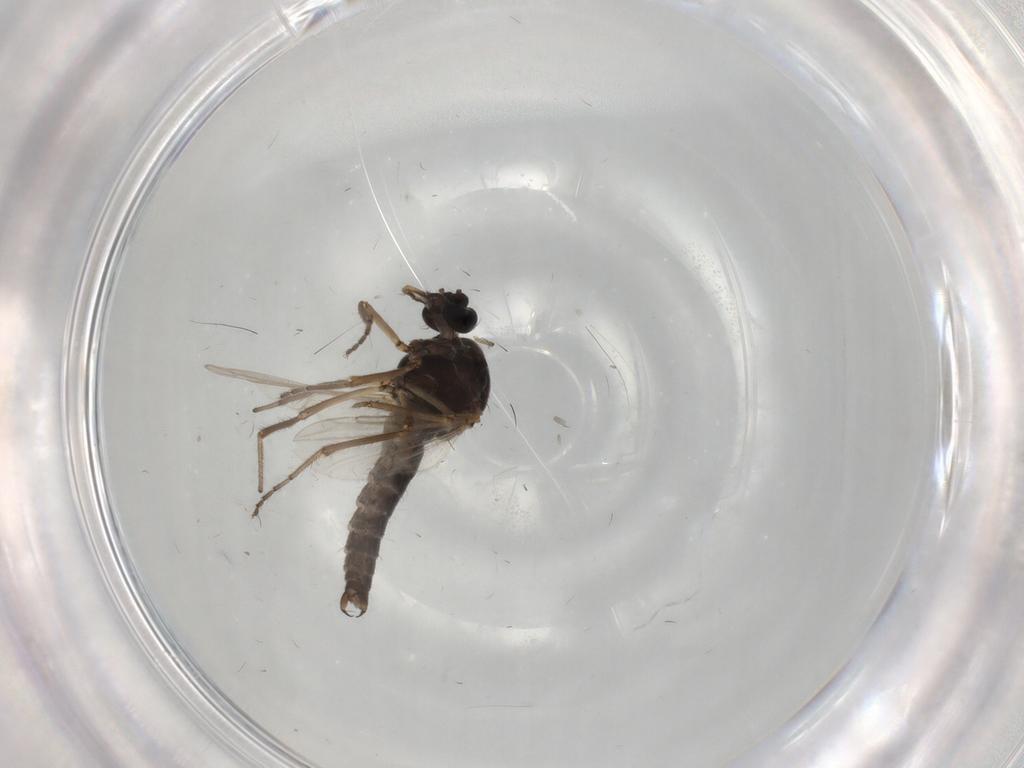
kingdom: Animalia
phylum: Arthropoda
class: Insecta
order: Diptera
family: Ceratopogonidae
